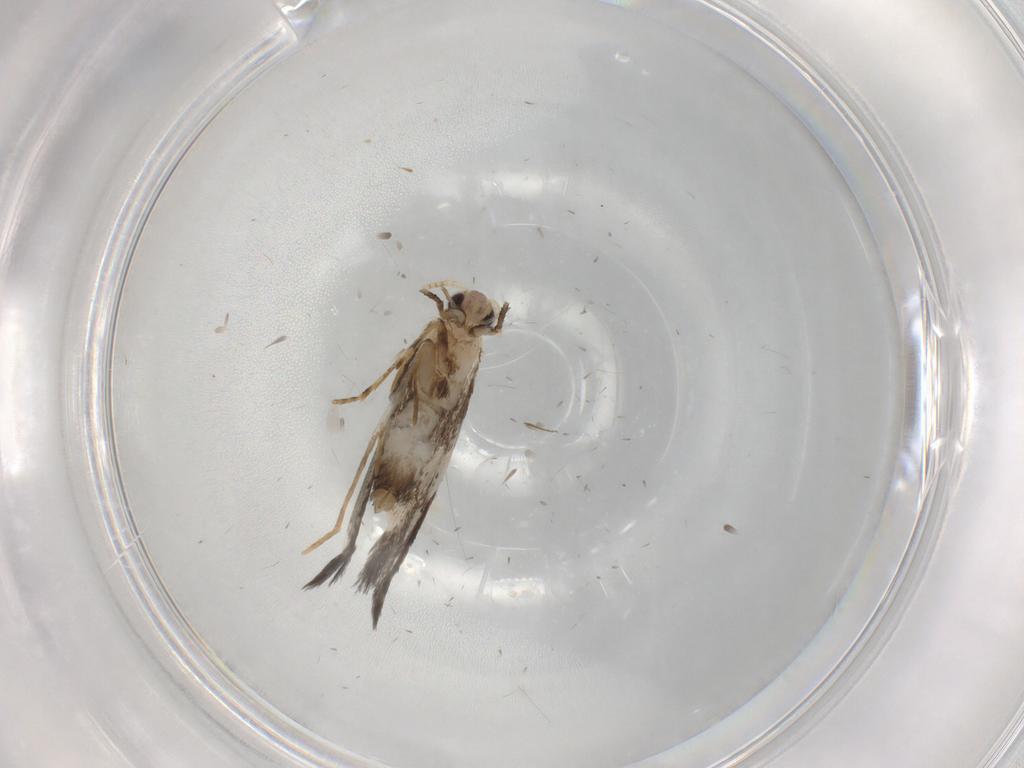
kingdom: Animalia
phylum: Arthropoda
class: Insecta
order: Lepidoptera
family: Tineidae
